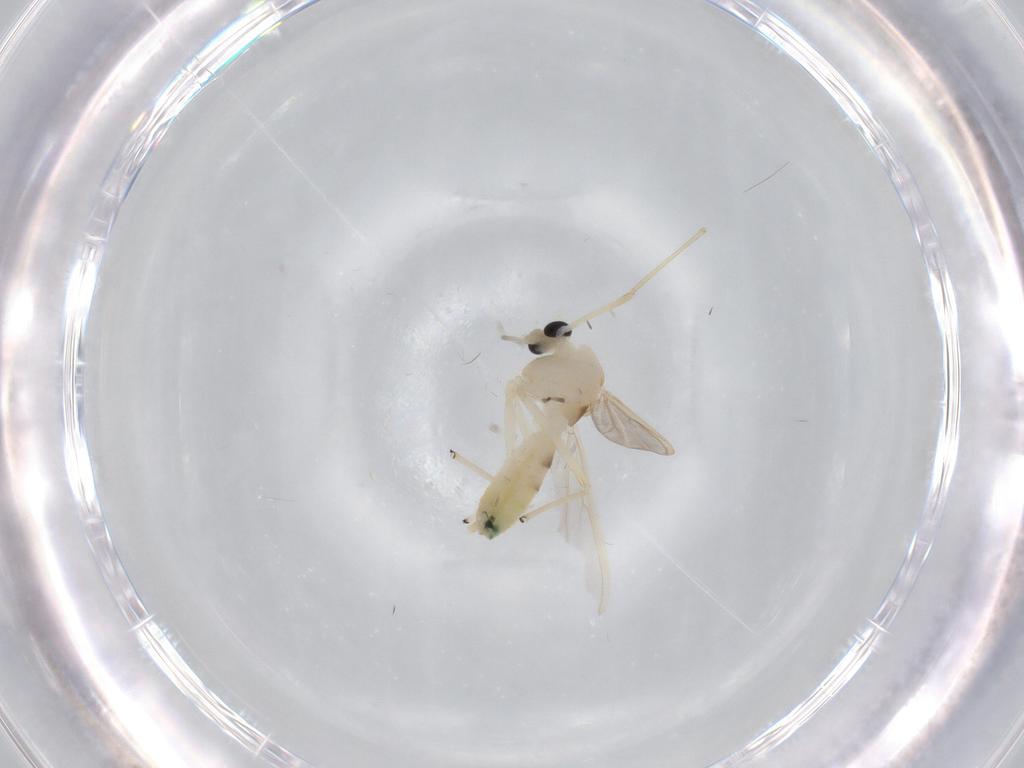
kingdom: Animalia
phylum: Arthropoda
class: Insecta
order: Diptera
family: Chironomidae
